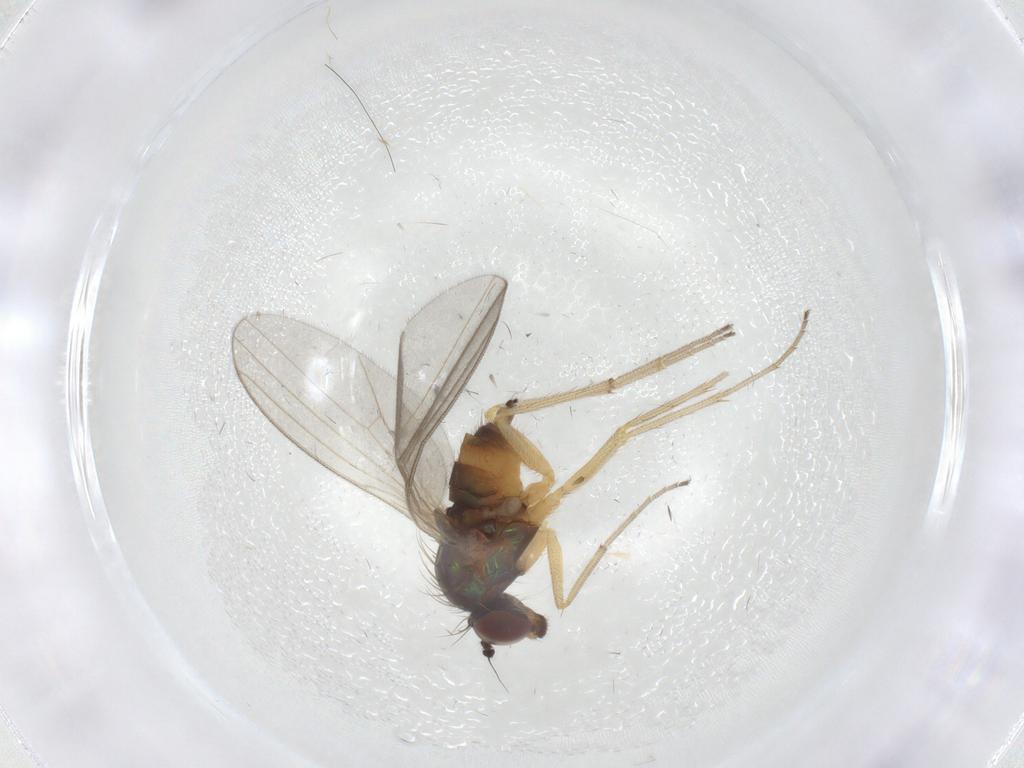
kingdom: Animalia
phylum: Arthropoda
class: Insecta
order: Diptera
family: Dolichopodidae
